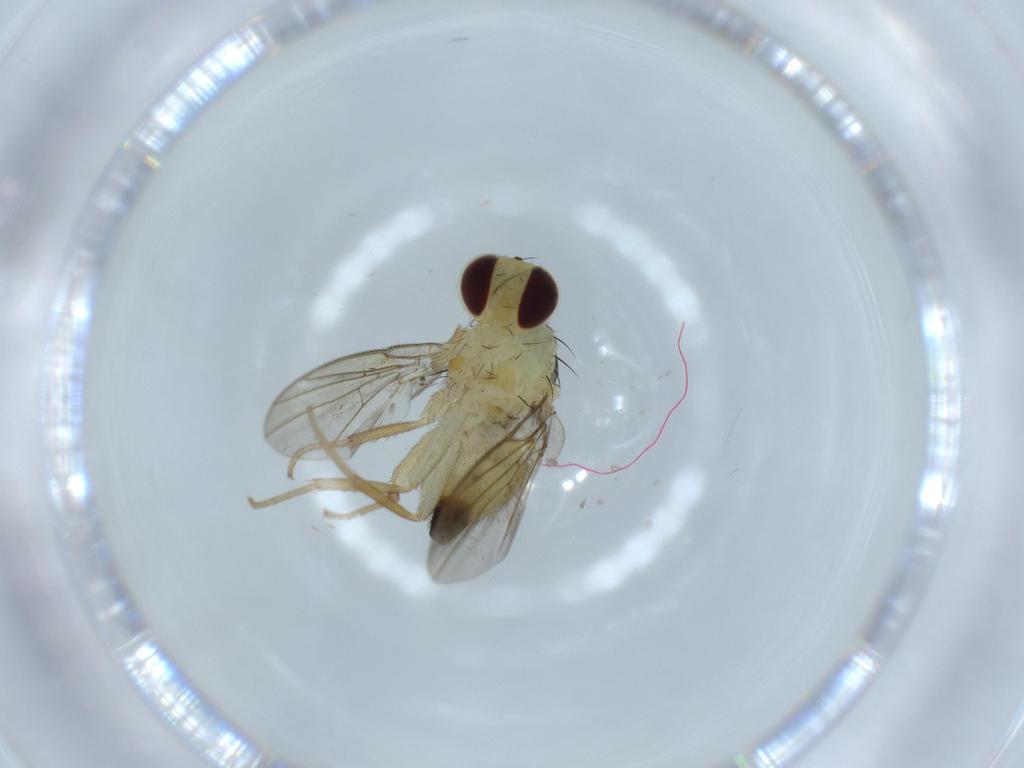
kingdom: Animalia
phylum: Arthropoda
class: Insecta
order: Diptera
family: Agromyzidae
